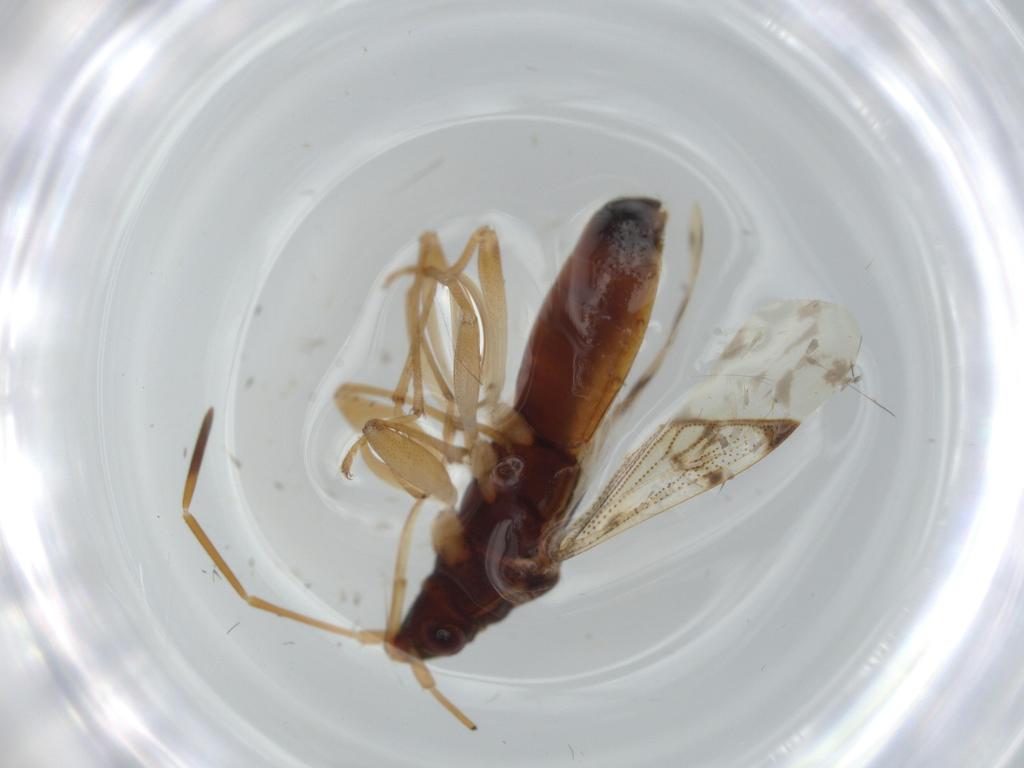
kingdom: Animalia
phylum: Arthropoda
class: Insecta
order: Hemiptera
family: Rhyparochromidae
